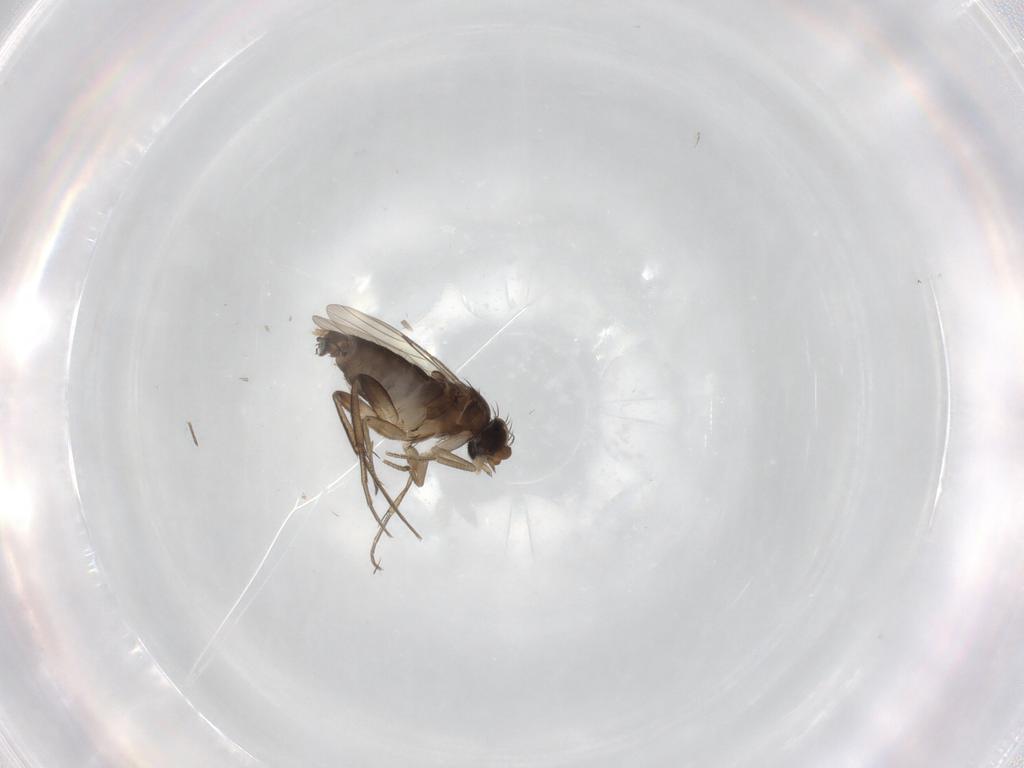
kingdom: Animalia
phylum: Arthropoda
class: Insecta
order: Diptera
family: Phoridae
